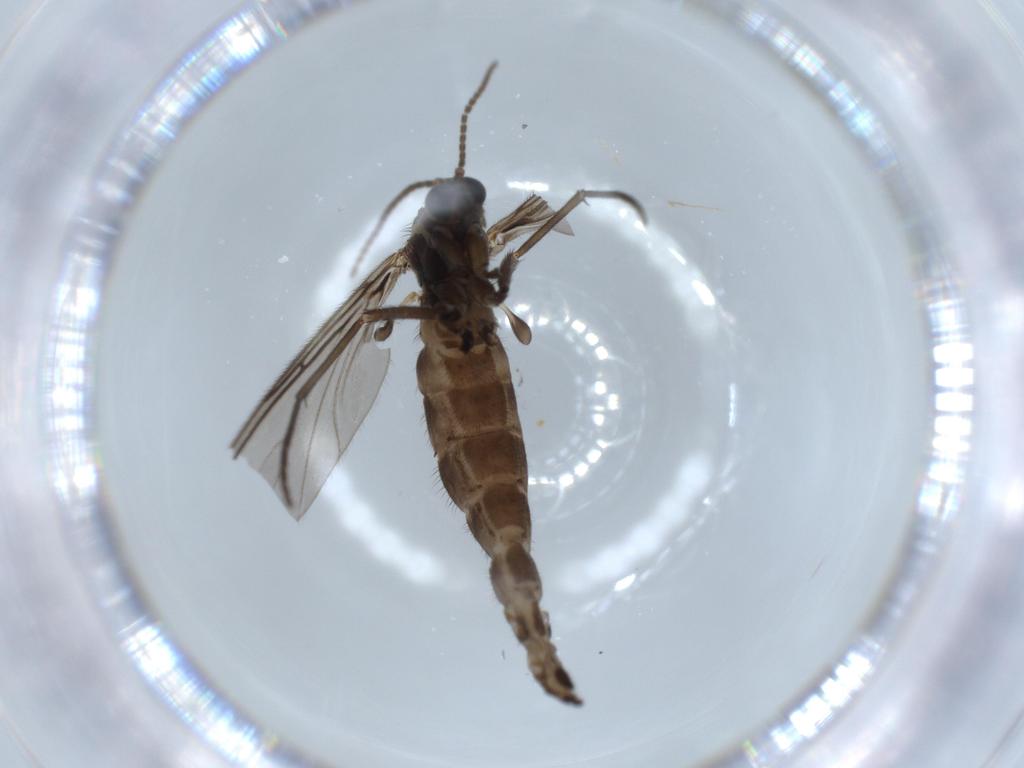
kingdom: Animalia
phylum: Arthropoda
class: Insecta
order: Diptera
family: Sciaridae
